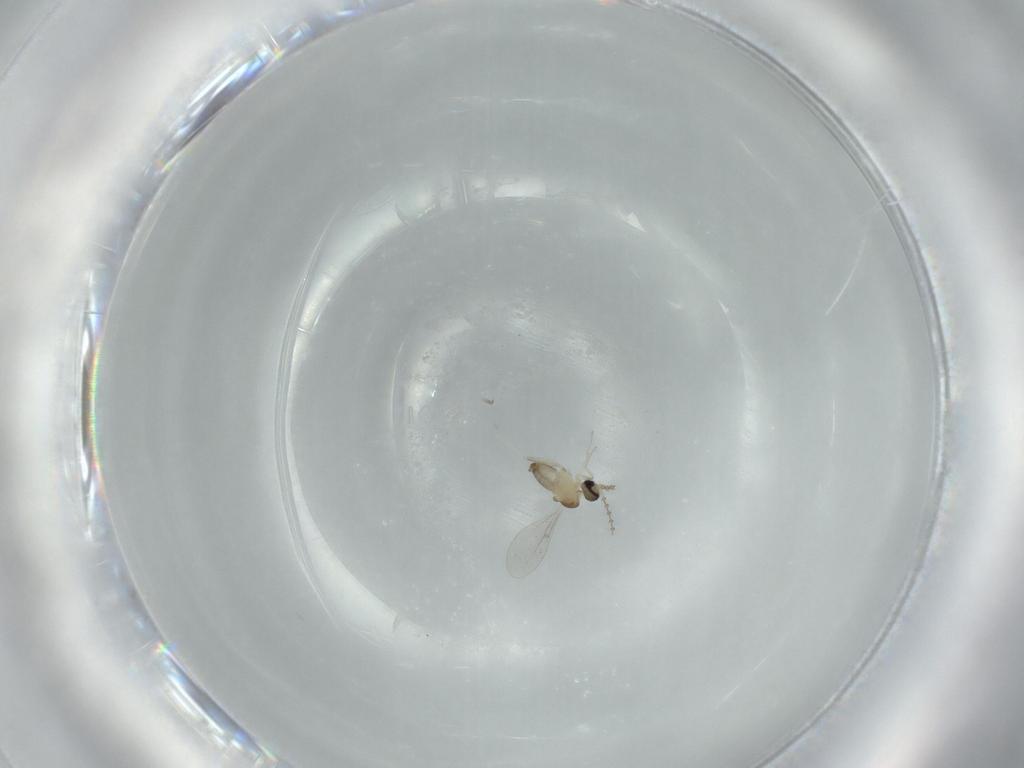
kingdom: Animalia
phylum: Arthropoda
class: Insecta
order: Diptera
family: Cecidomyiidae
